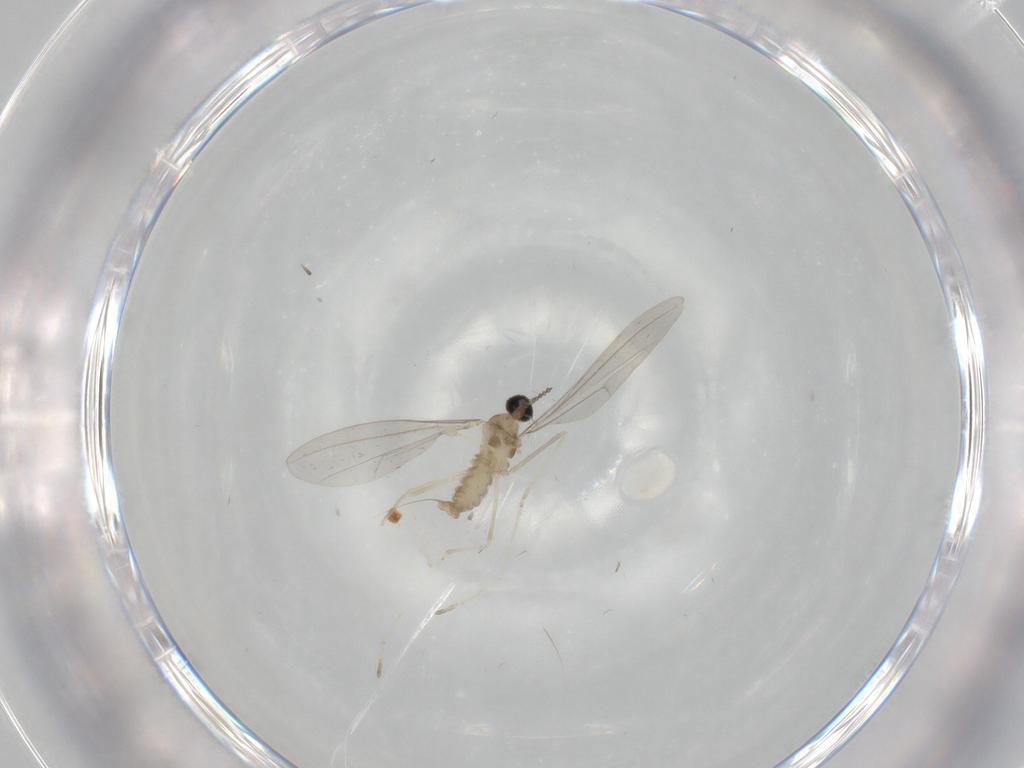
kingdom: Animalia
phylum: Arthropoda
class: Insecta
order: Diptera
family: Cecidomyiidae
